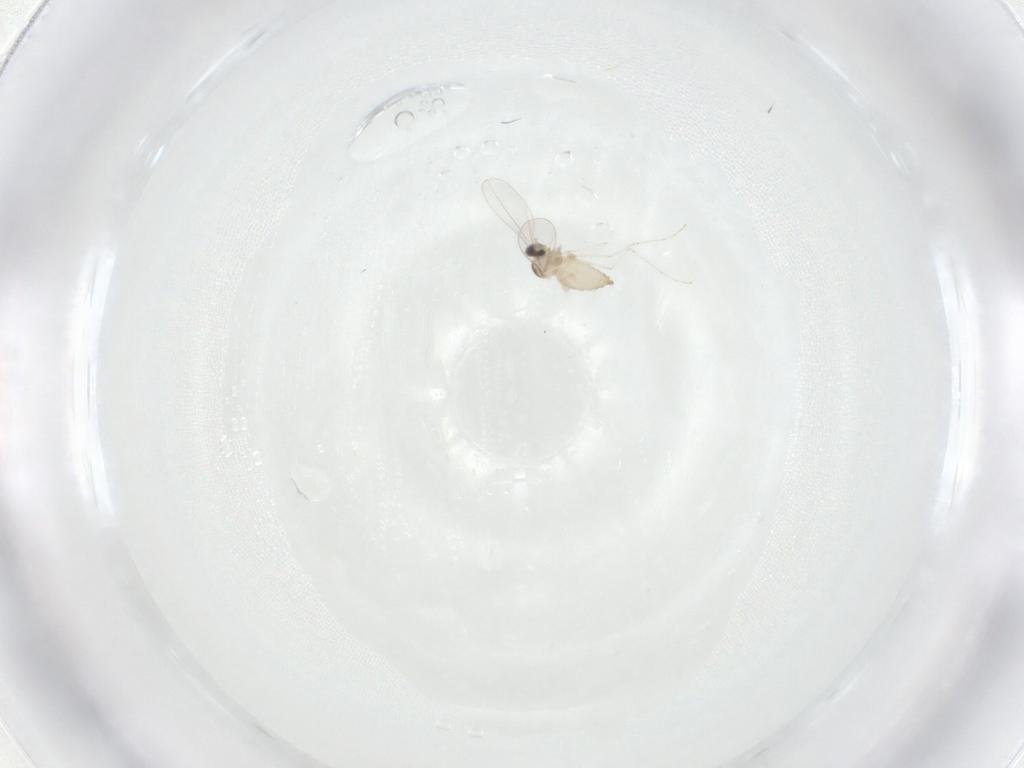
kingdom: Animalia
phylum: Arthropoda
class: Insecta
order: Diptera
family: Cecidomyiidae
